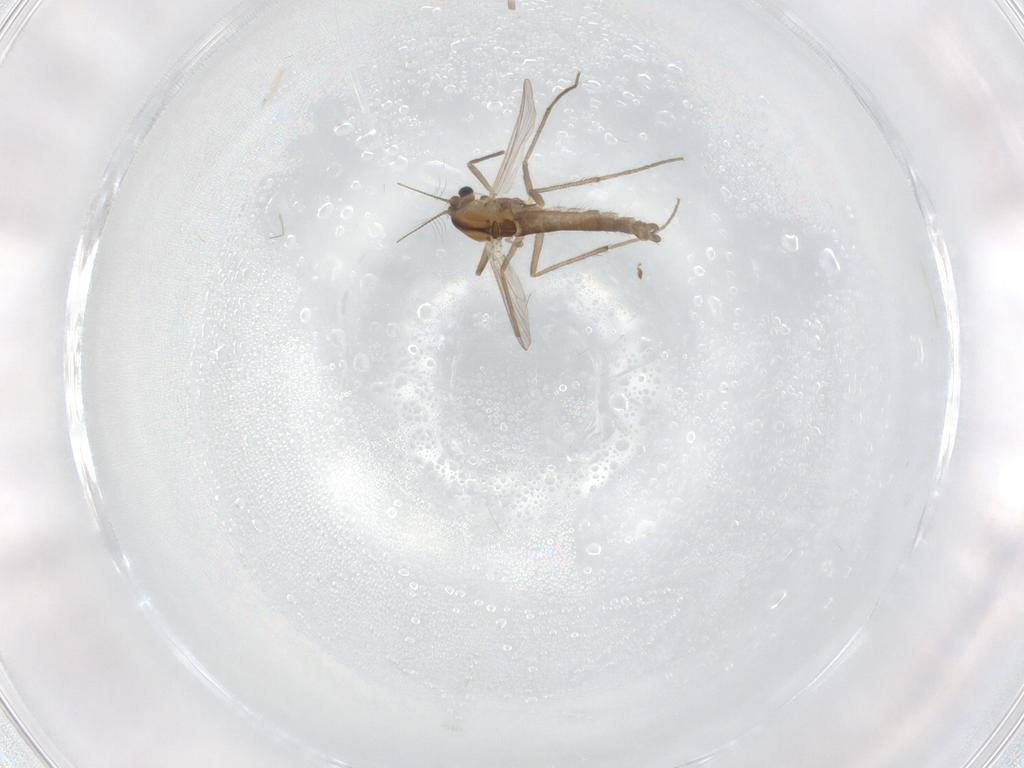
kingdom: Animalia
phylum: Arthropoda
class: Insecta
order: Diptera
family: Chironomidae
